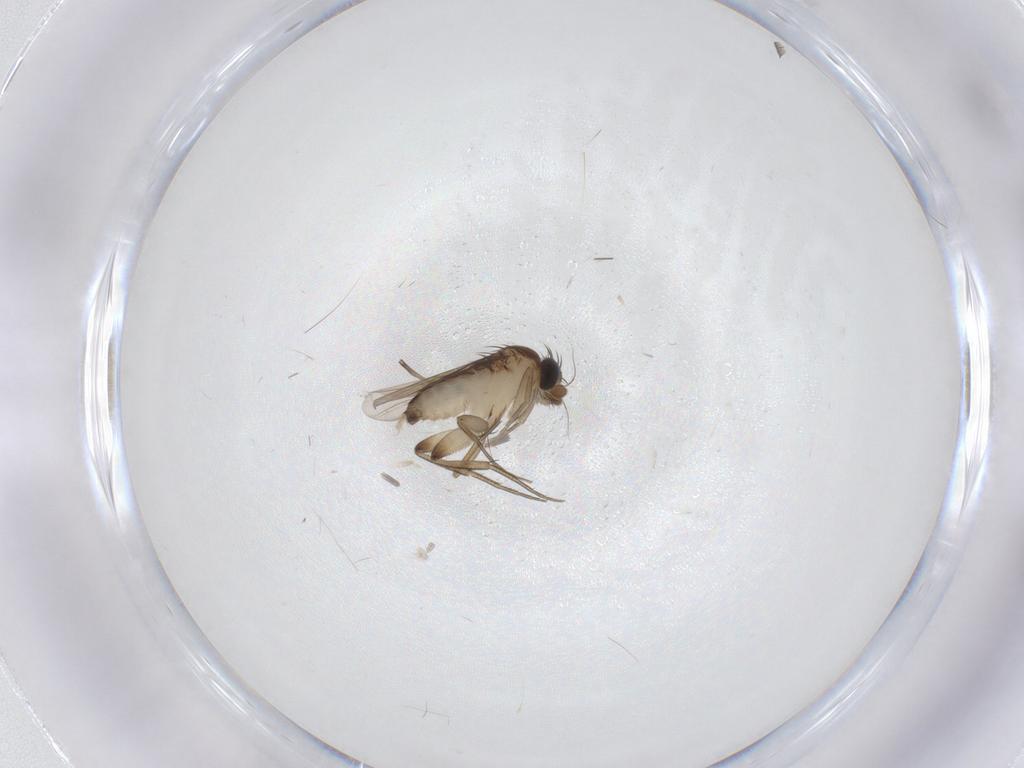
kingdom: Animalia
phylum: Arthropoda
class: Insecta
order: Diptera
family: Phoridae
